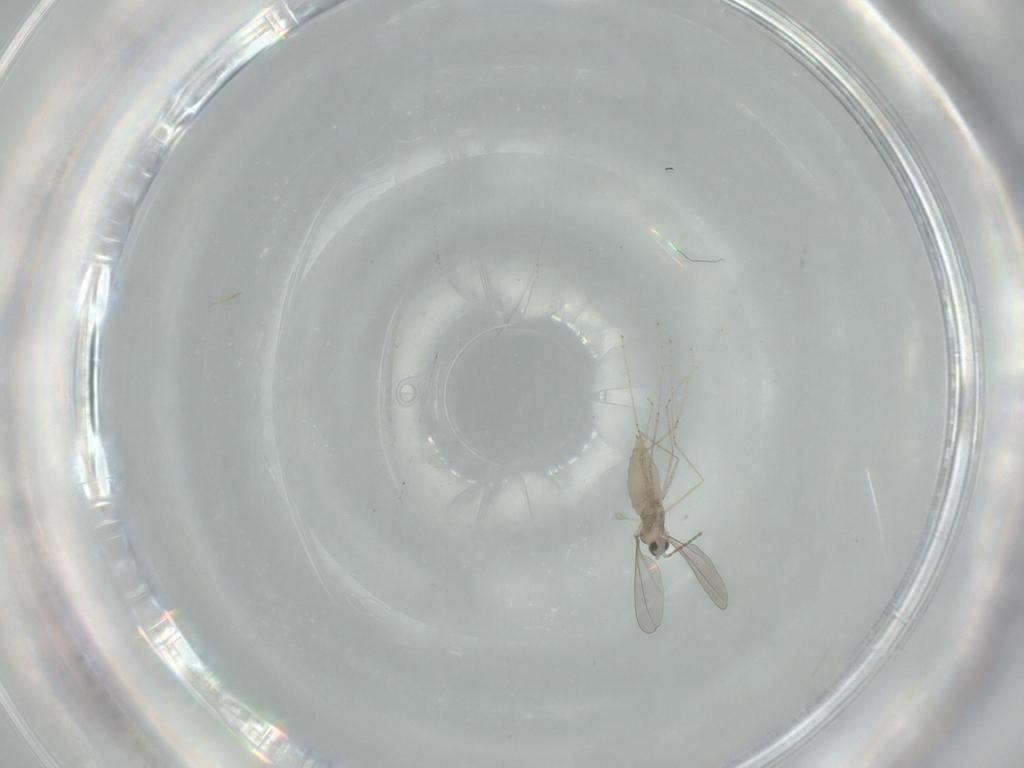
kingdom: Animalia
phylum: Arthropoda
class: Insecta
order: Diptera
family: Cecidomyiidae
